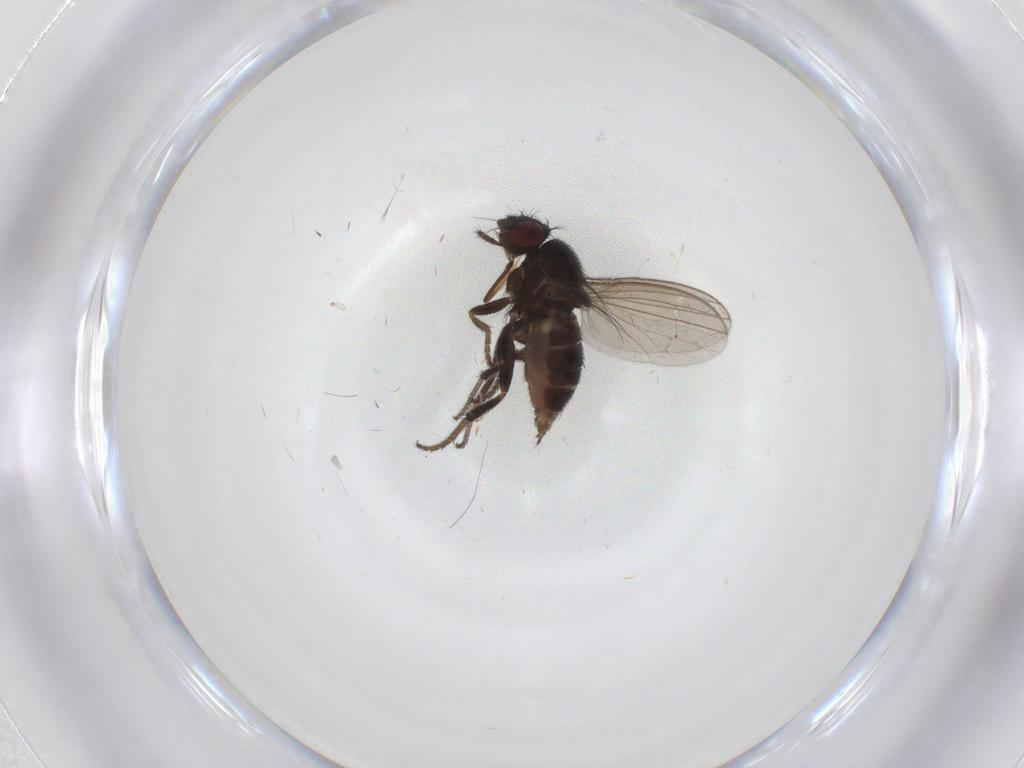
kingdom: Animalia
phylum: Arthropoda
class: Insecta
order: Diptera
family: Milichiidae
